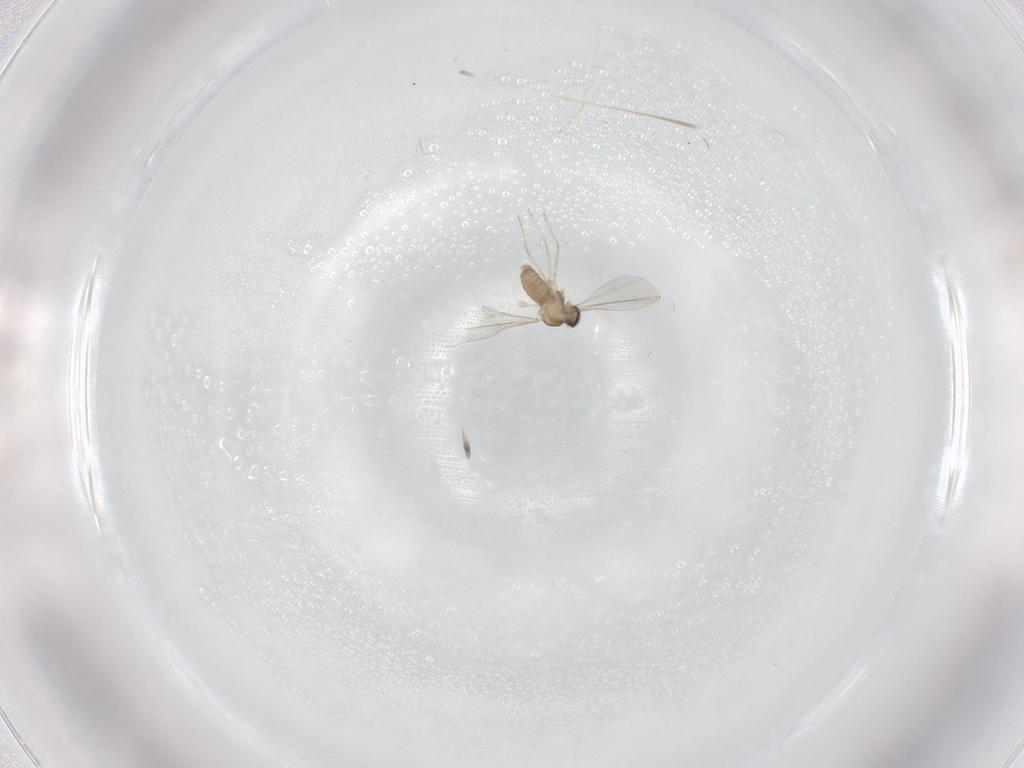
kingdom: Animalia
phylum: Arthropoda
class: Insecta
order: Diptera
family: Cecidomyiidae
